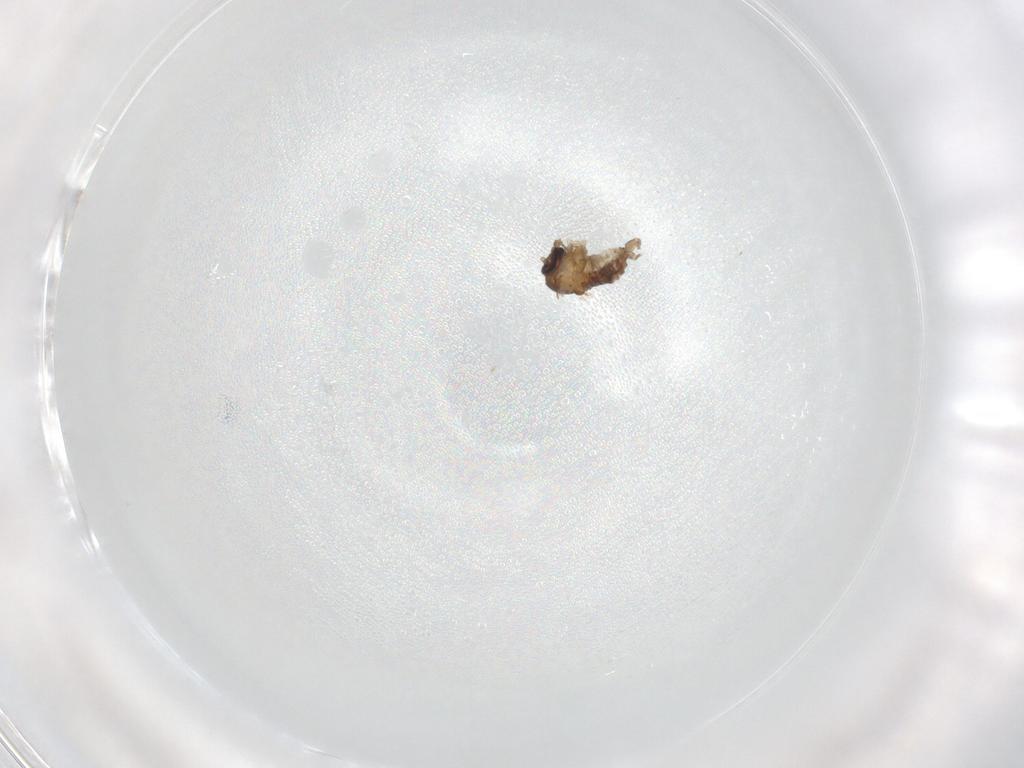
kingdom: Animalia
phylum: Arthropoda
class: Insecta
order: Diptera
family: Psychodidae
